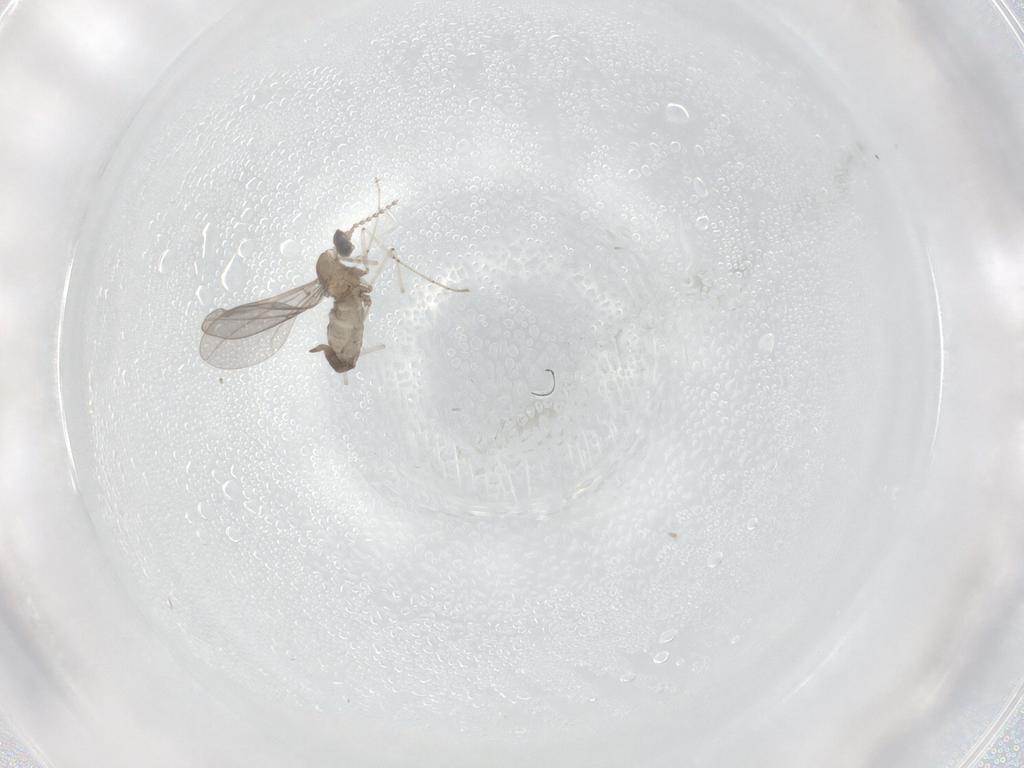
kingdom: Animalia
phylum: Arthropoda
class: Insecta
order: Diptera
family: Cecidomyiidae
